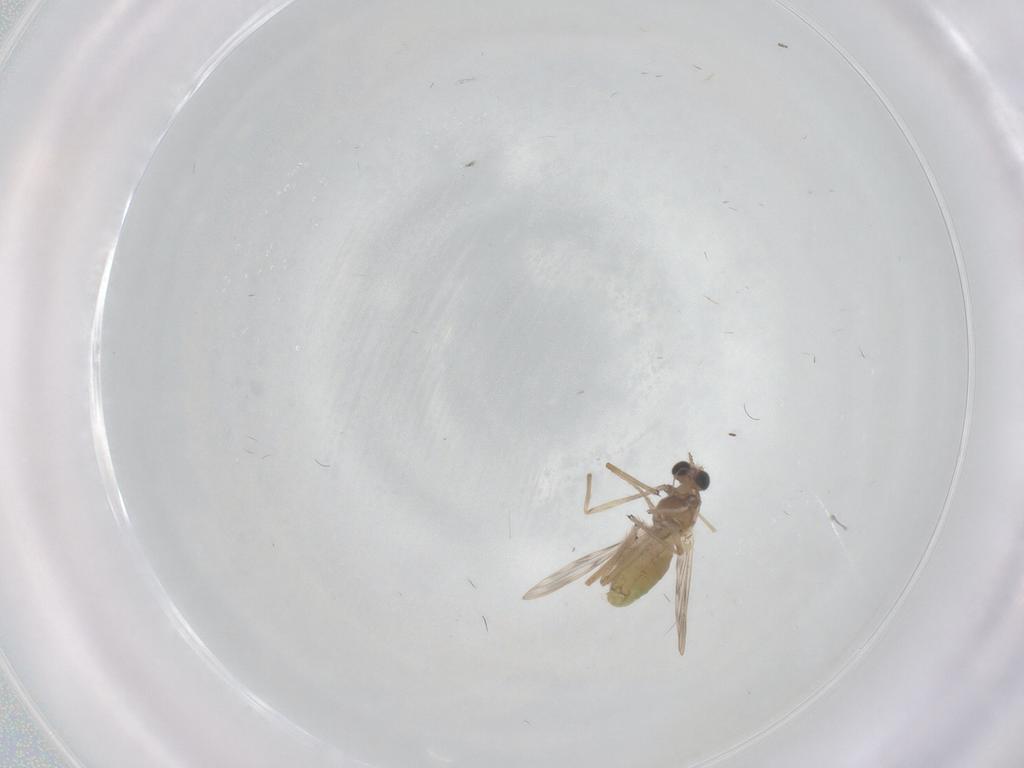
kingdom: Animalia
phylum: Arthropoda
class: Insecta
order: Diptera
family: Chironomidae
